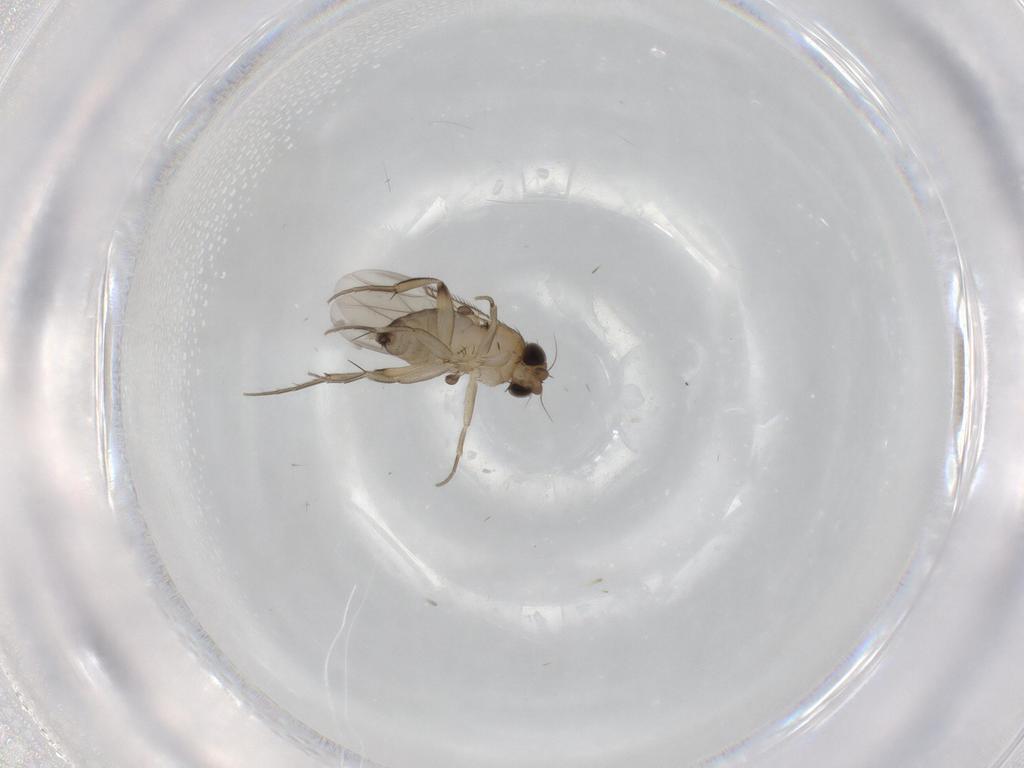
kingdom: Animalia
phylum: Arthropoda
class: Insecta
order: Diptera
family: Phoridae
